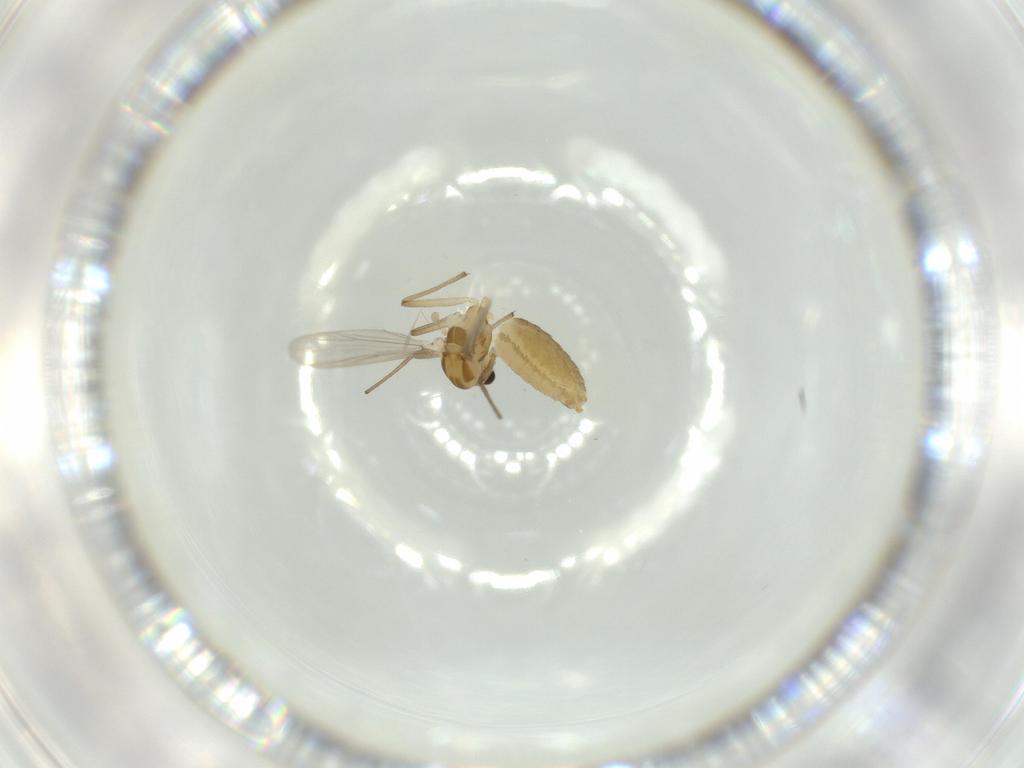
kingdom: Animalia
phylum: Arthropoda
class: Insecta
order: Diptera
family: Chironomidae
